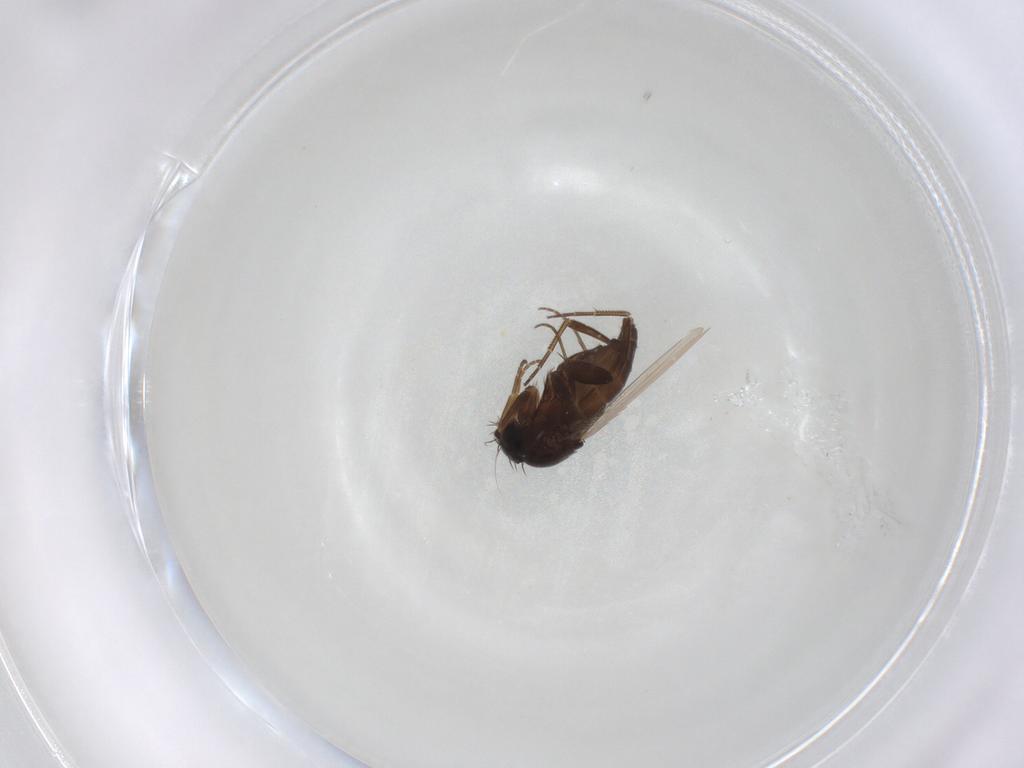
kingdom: Animalia
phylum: Arthropoda
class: Insecta
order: Diptera
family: Ephydridae
